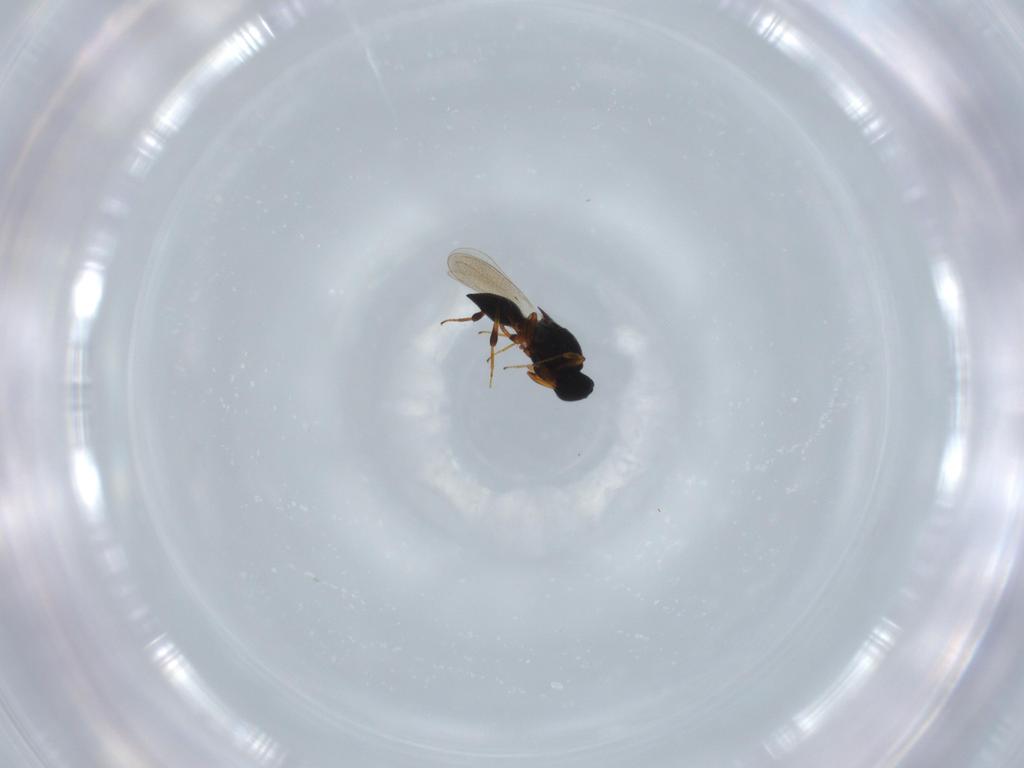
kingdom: Animalia
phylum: Arthropoda
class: Insecta
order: Hymenoptera
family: Platygastridae
